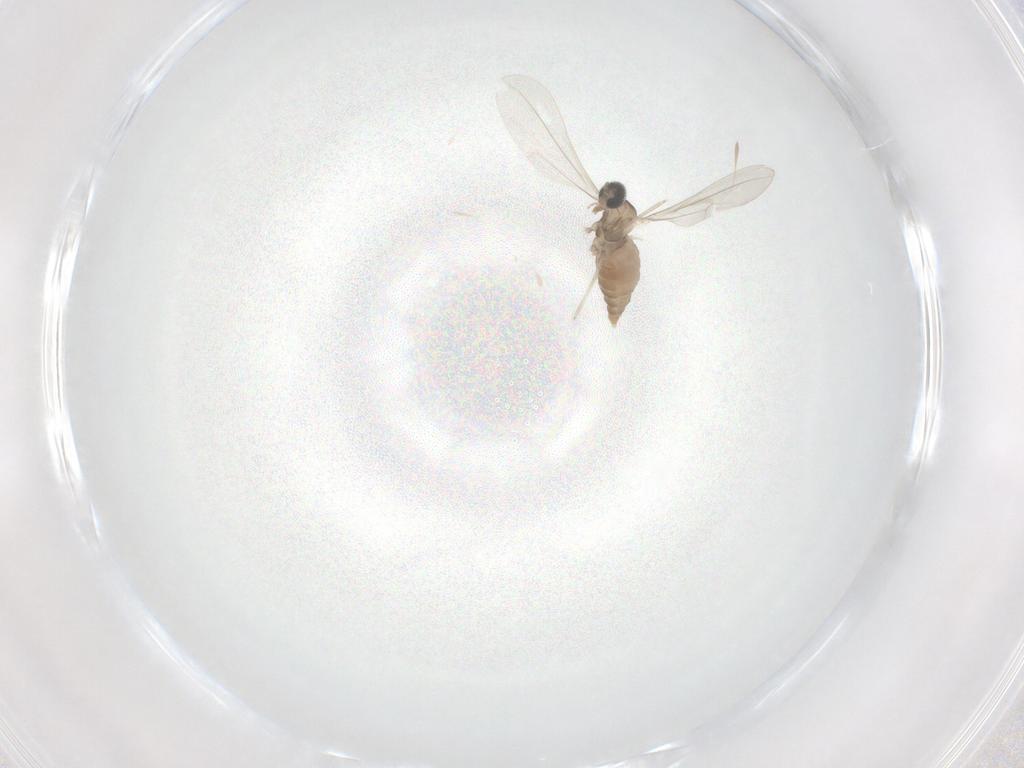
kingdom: Animalia
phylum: Arthropoda
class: Insecta
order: Diptera
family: Cecidomyiidae
